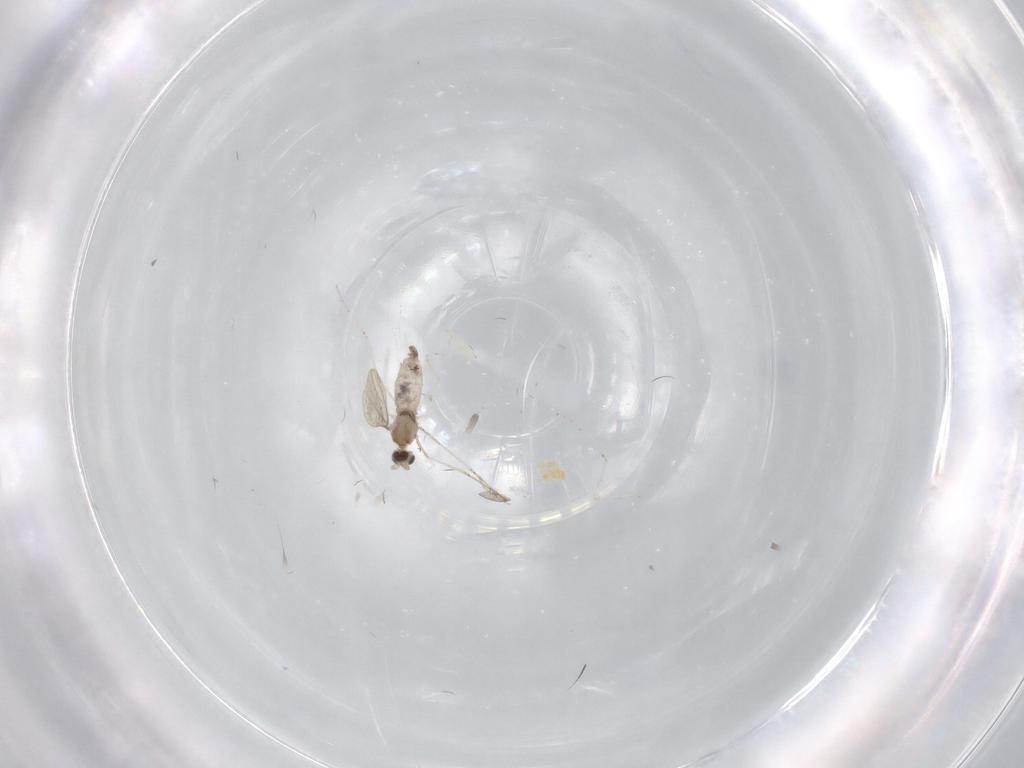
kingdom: Animalia
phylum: Arthropoda
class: Insecta
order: Diptera
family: Cecidomyiidae
